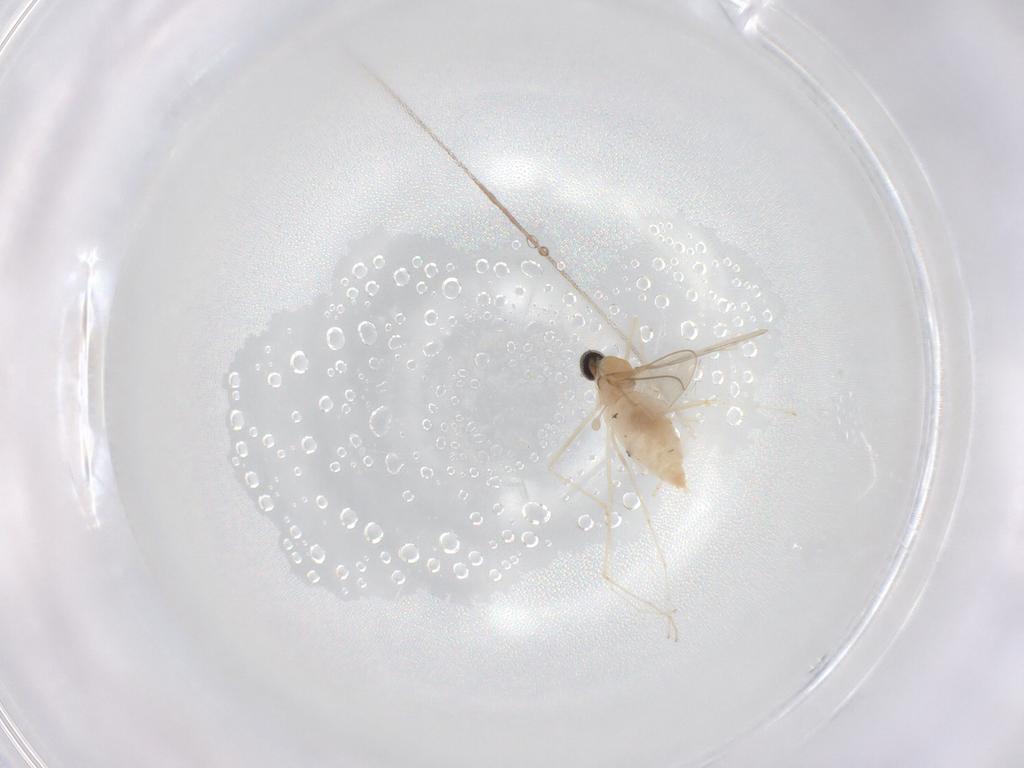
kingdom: Animalia
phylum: Arthropoda
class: Insecta
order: Diptera
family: Cecidomyiidae
